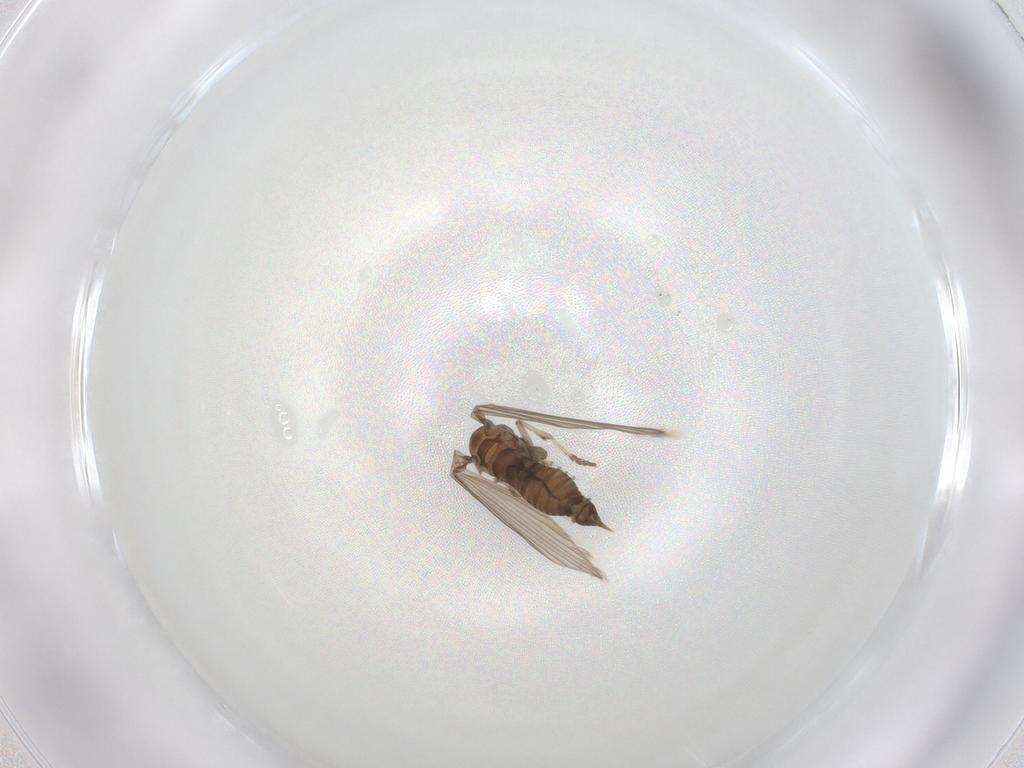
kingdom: Animalia
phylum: Arthropoda
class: Insecta
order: Diptera
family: Psychodidae
